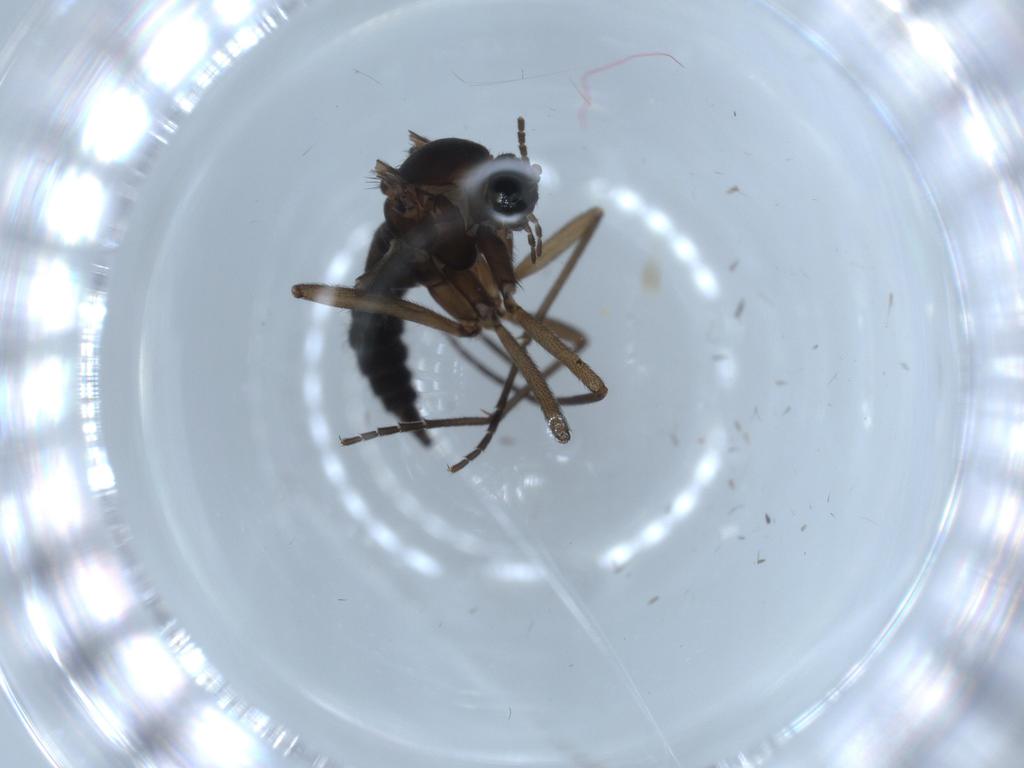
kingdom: Animalia
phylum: Arthropoda
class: Insecta
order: Diptera
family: Sciaridae
